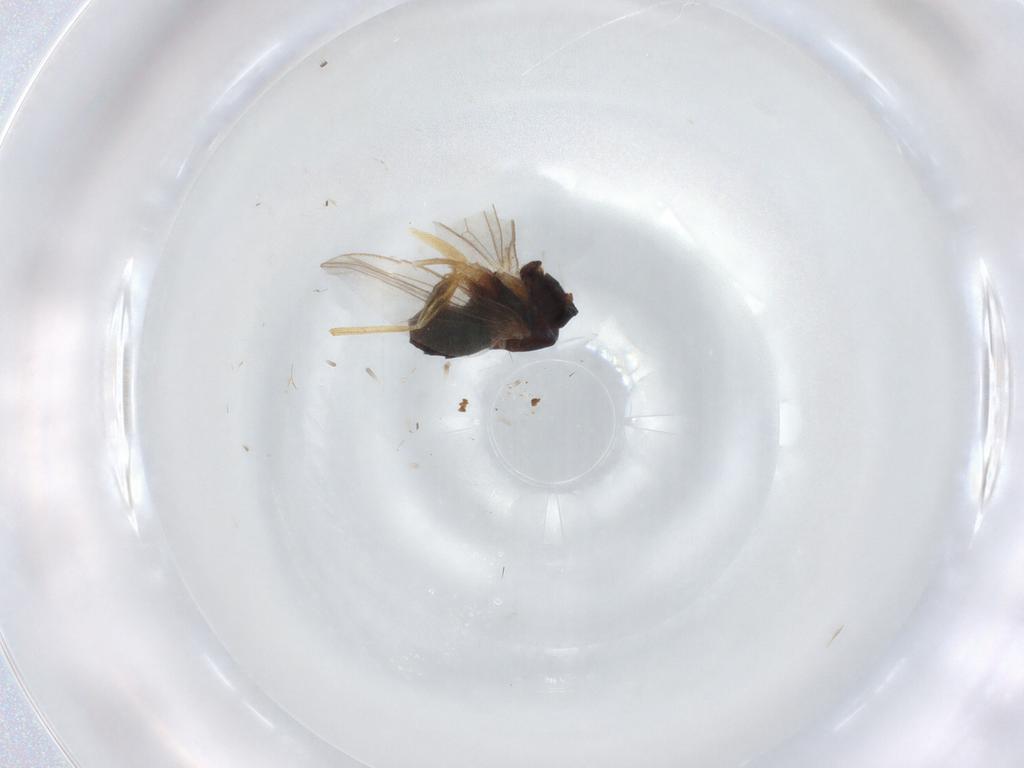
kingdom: Animalia
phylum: Arthropoda
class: Insecta
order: Diptera
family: Dolichopodidae
